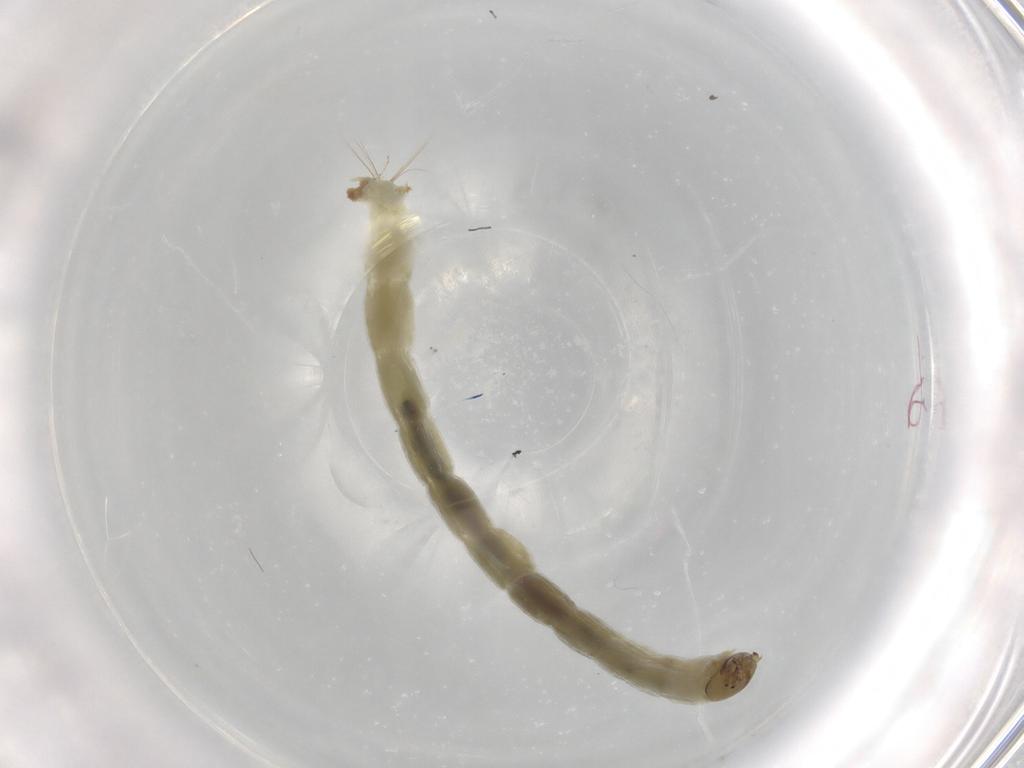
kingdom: Animalia
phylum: Arthropoda
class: Insecta
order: Diptera
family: Chironomidae
